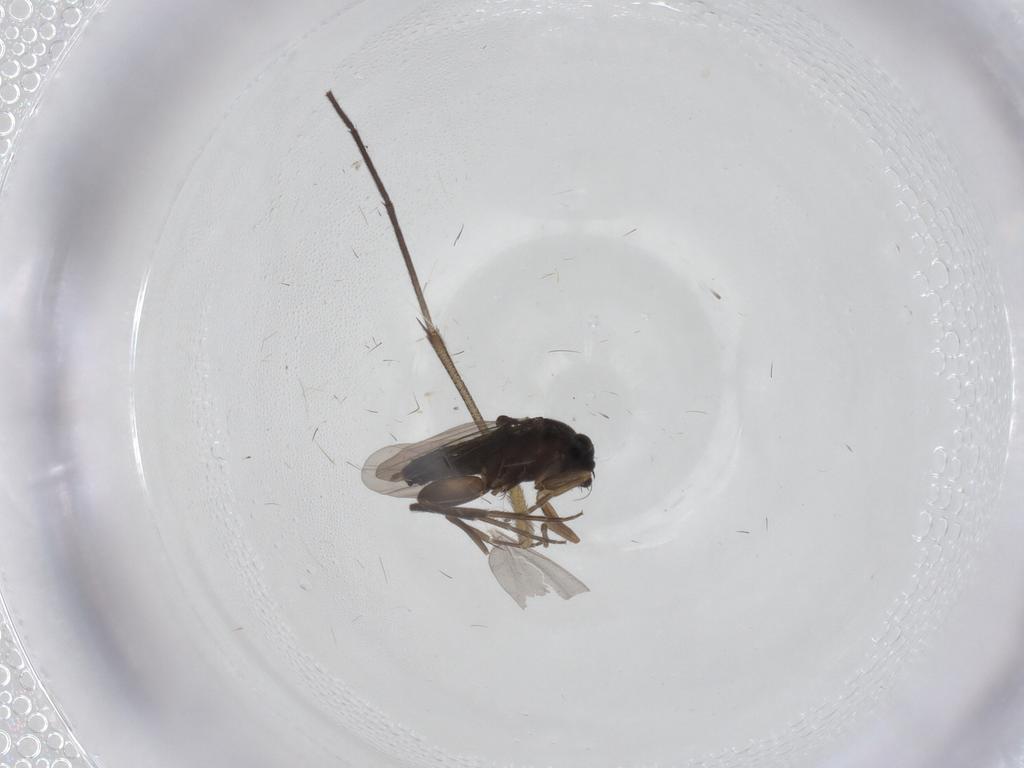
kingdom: Animalia
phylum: Arthropoda
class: Insecta
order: Diptera
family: Phoridae
